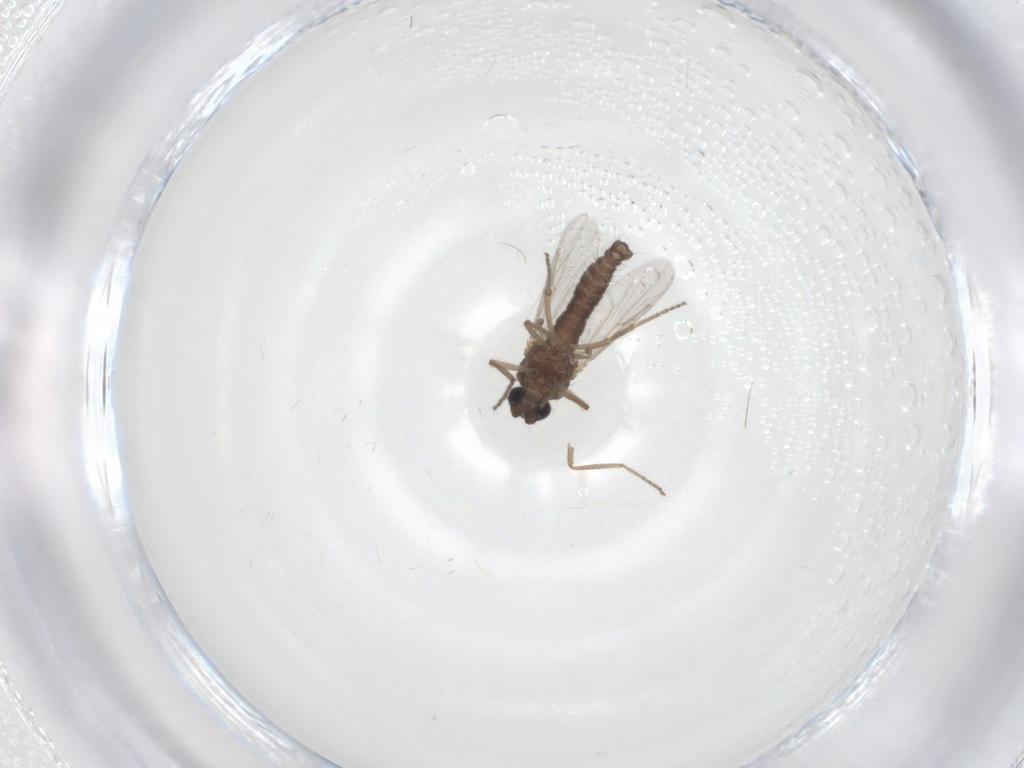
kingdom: Animalia
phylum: Arthropoda
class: Insecta
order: Diptera
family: Ceratopogonidae
